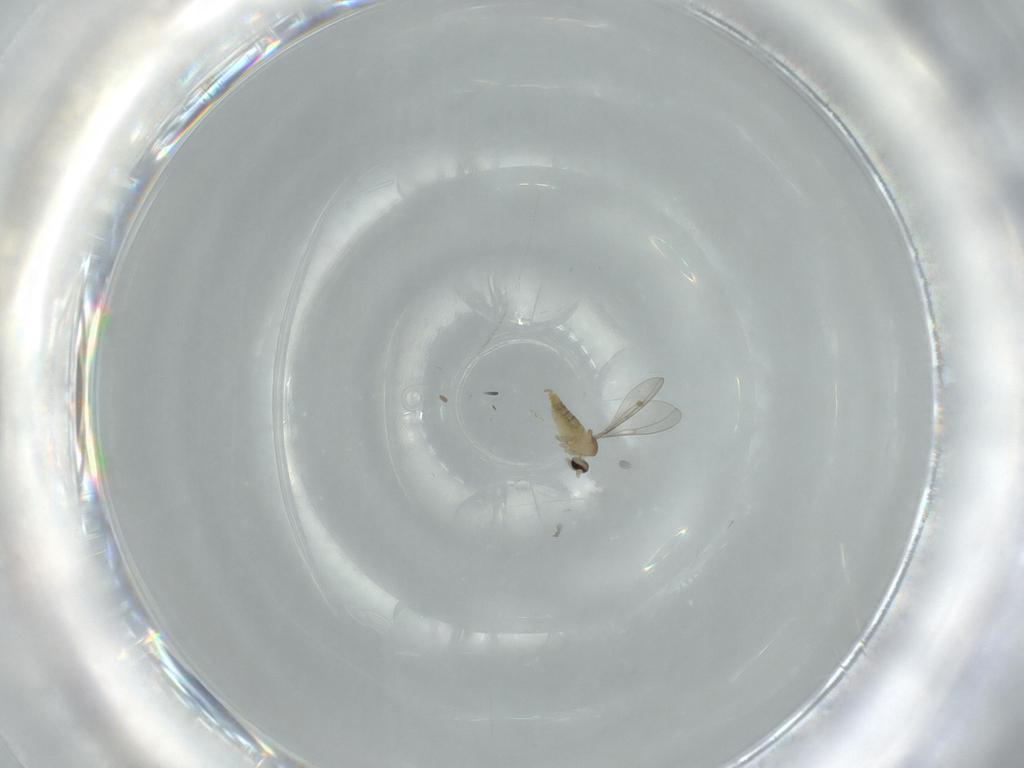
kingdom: Animalia
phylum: Arthropoda
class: Insecta
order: Diptera
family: Cecidomyiidae
